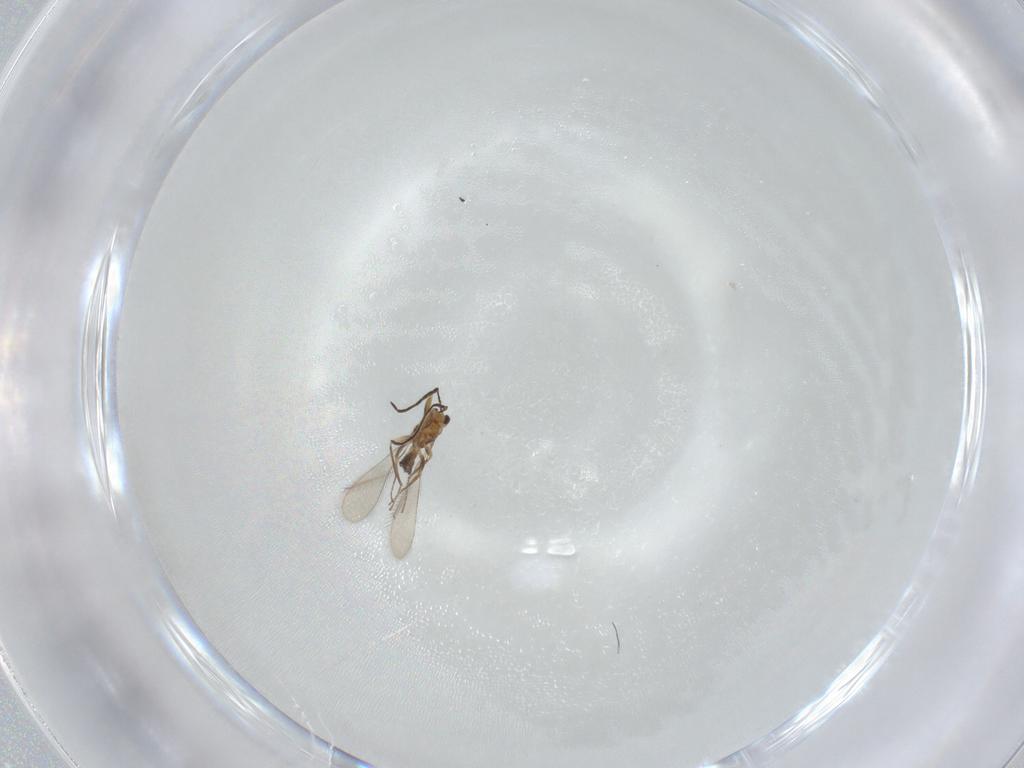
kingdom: Animalia
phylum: Arthropoda
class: Insecta
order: Hymenoptera
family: Mymaridae
